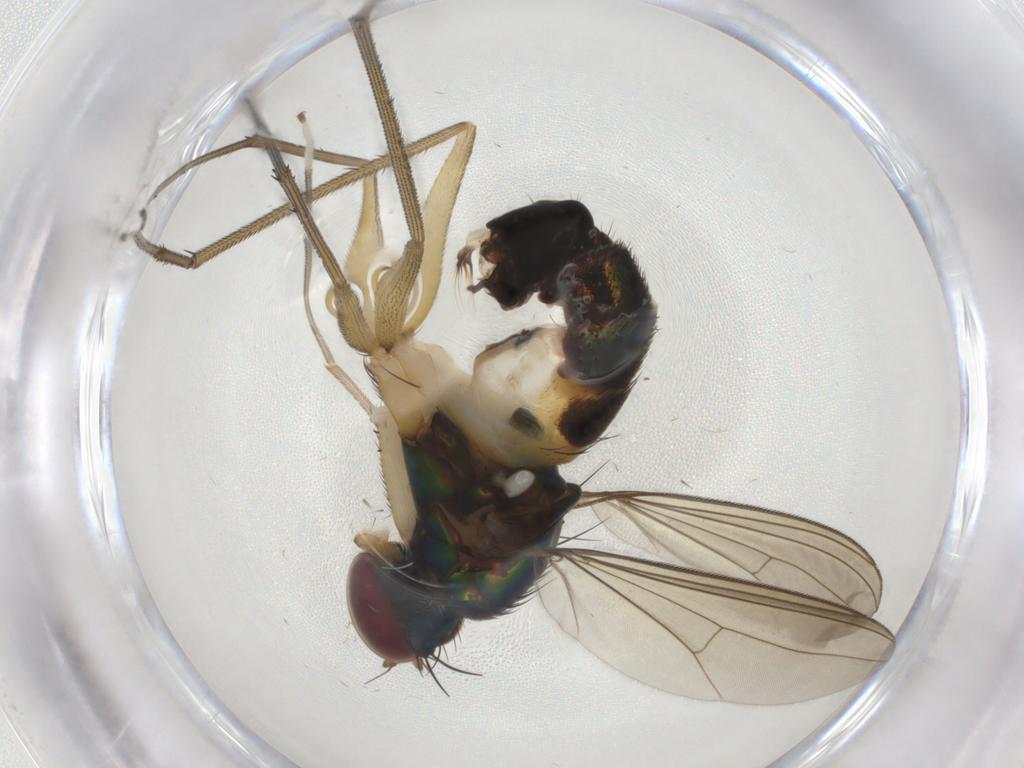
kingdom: Animalia
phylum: Arthropoda
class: Insecta
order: Diptera
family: Dolichopodidae
